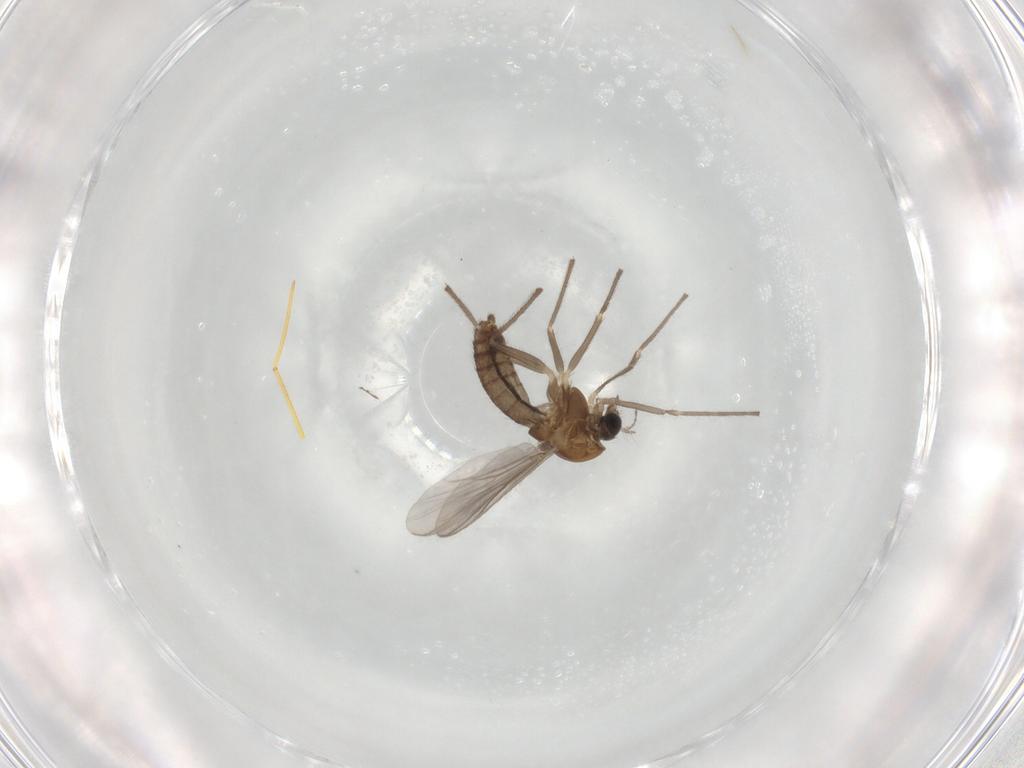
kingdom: Animalia
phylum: Arthropoda
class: Insecta
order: Diptera
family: Chironomidae
